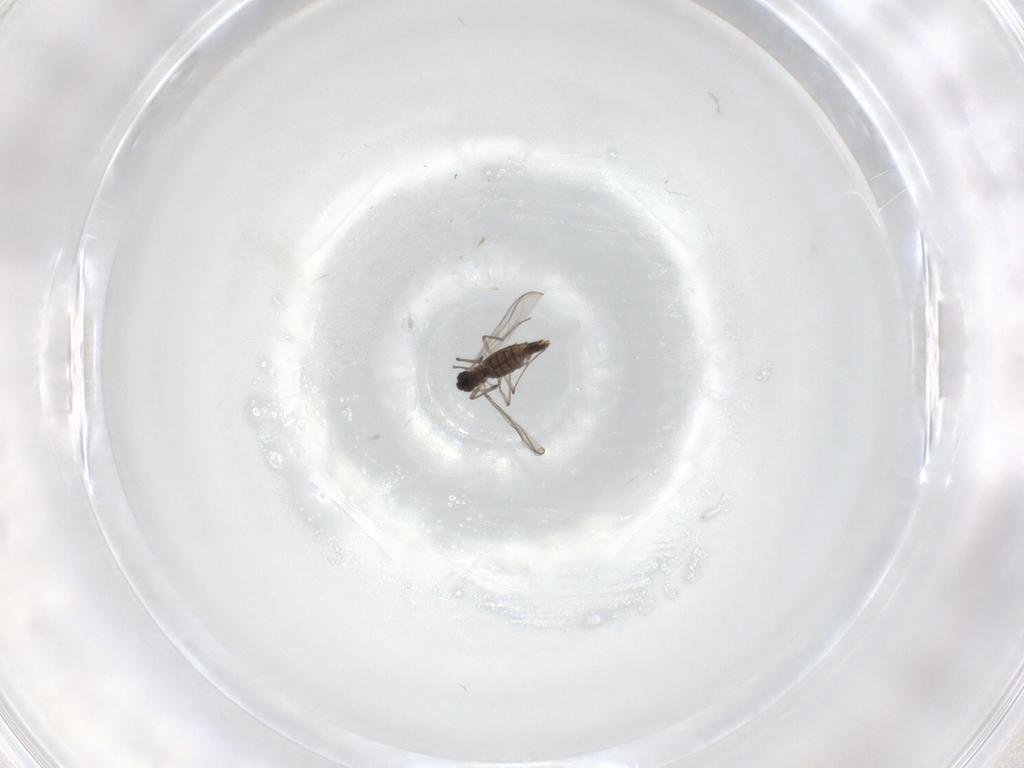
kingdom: Animalia
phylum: Arthropoda
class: Insecta
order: Diptera
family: Chironomidae
